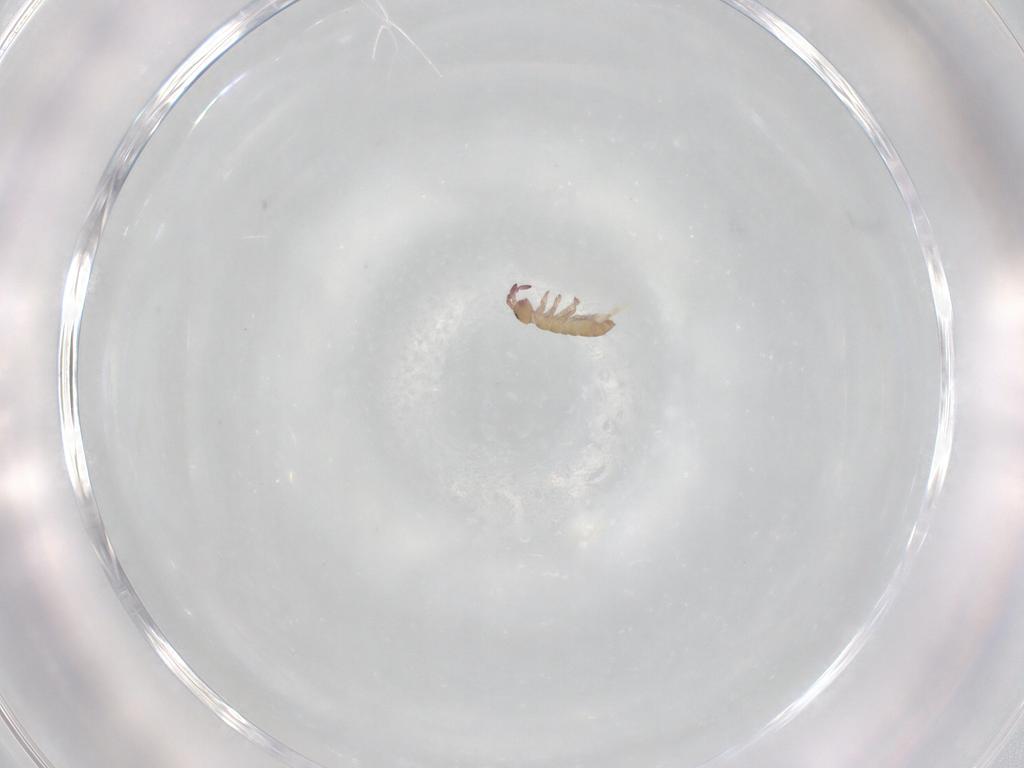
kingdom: Animalia
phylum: Arthropoda
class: Collembola
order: Entomobryomorpha
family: Isotomidae
